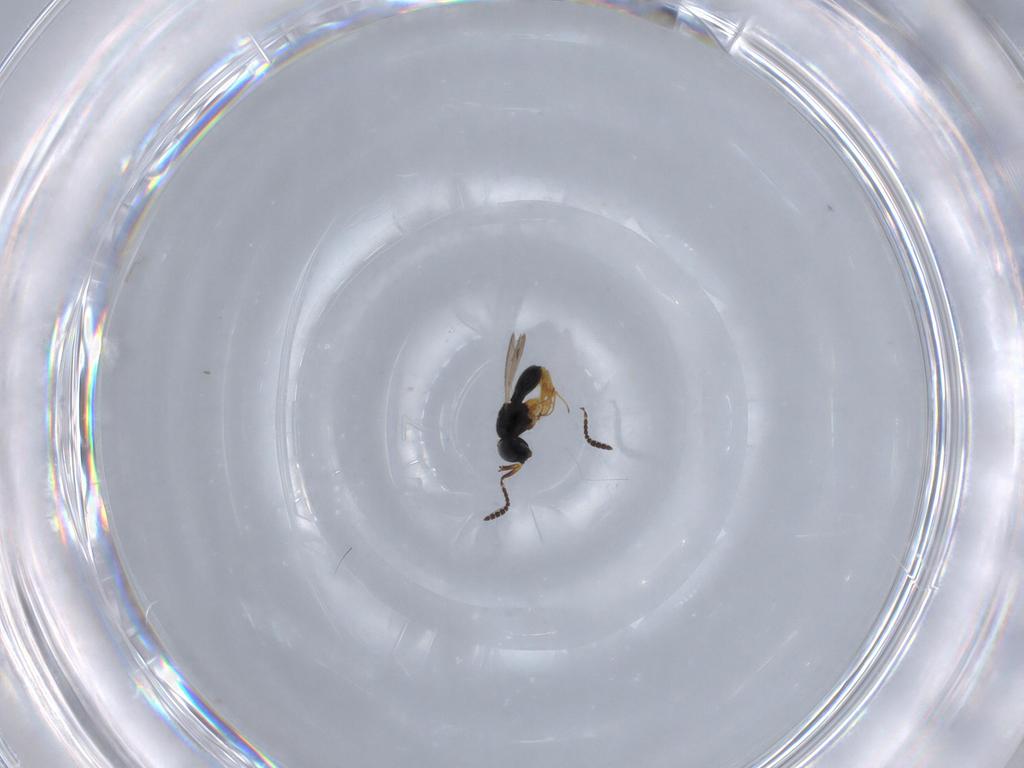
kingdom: Animalia
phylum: Arthropoda
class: Insecta
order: Hymenoptera
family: Scelionidae
